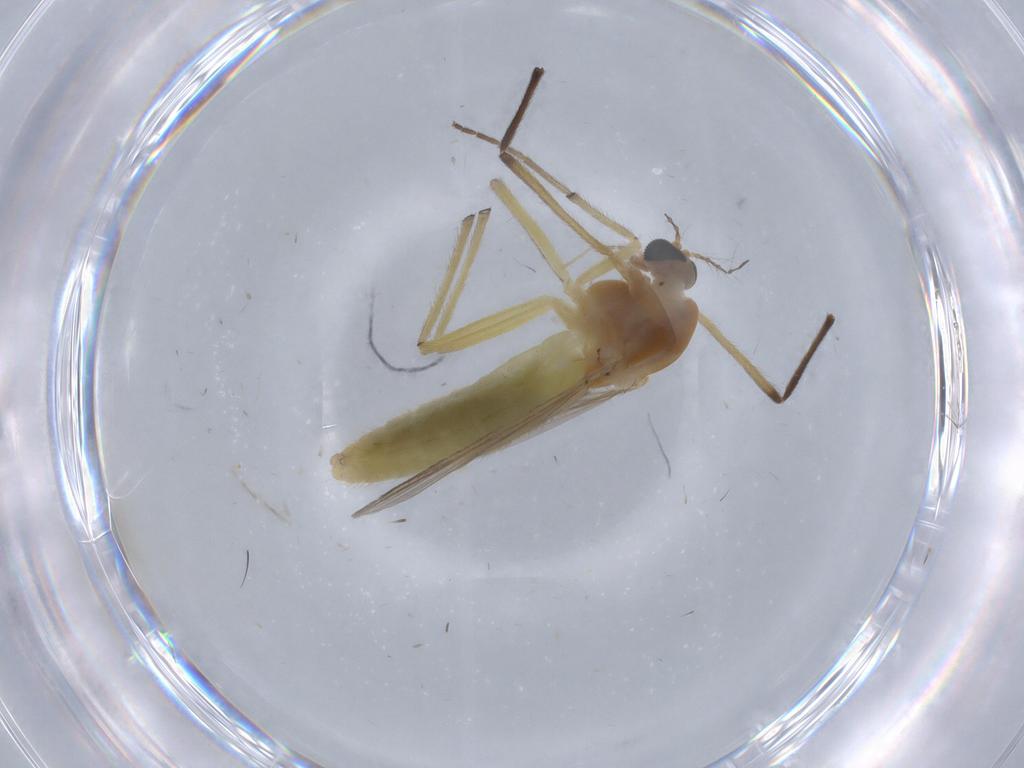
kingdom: Animalia
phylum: Arthropoda
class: Insecta
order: Diptera
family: Chironomidae
